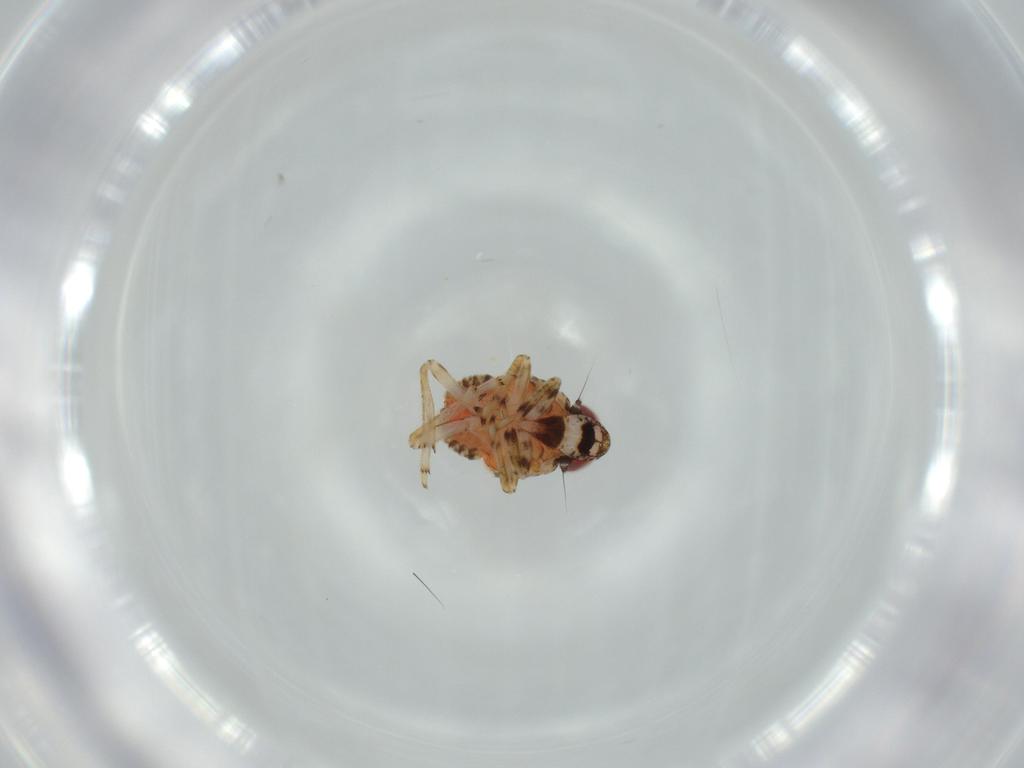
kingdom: Animalia
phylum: Arthropoda
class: Insecta
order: Hemiptera
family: Issidae
